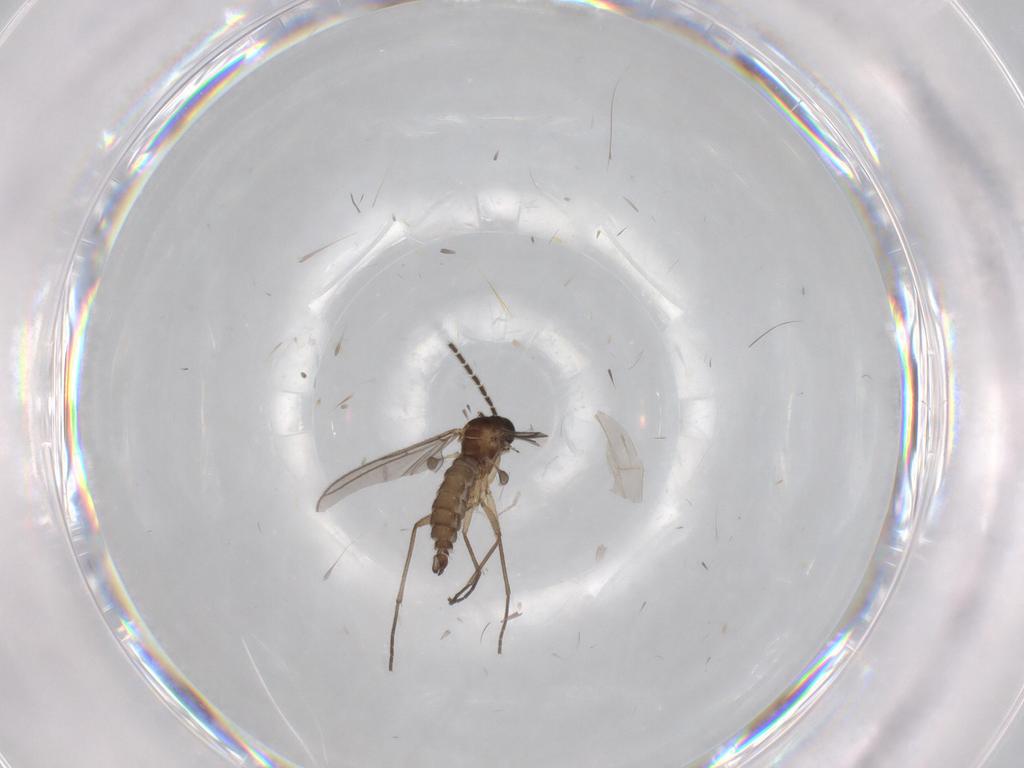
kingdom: Animalia
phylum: Arthropoda
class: Insecta
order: Diptera
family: Sciaridae
